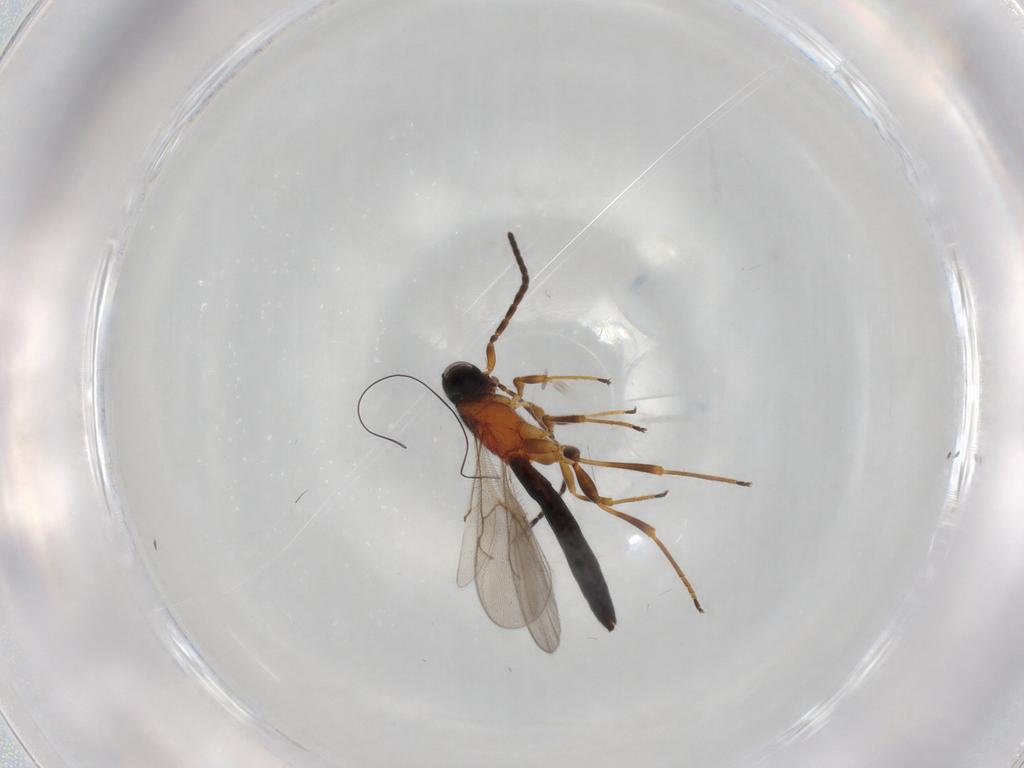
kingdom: Animalia
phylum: Arthropoda
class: Insecta
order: Hymenoptera
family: Scelionidae
